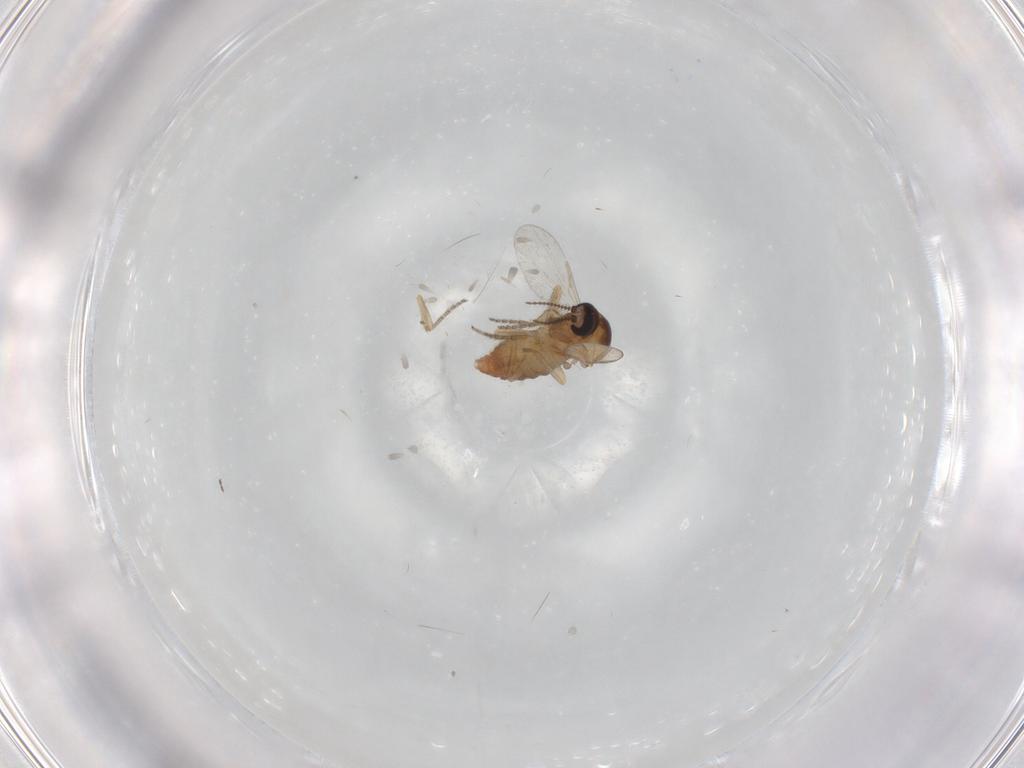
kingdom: Animalia
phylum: Arthropoda
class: Insecta
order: Diptera
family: Ceratopogonidae
